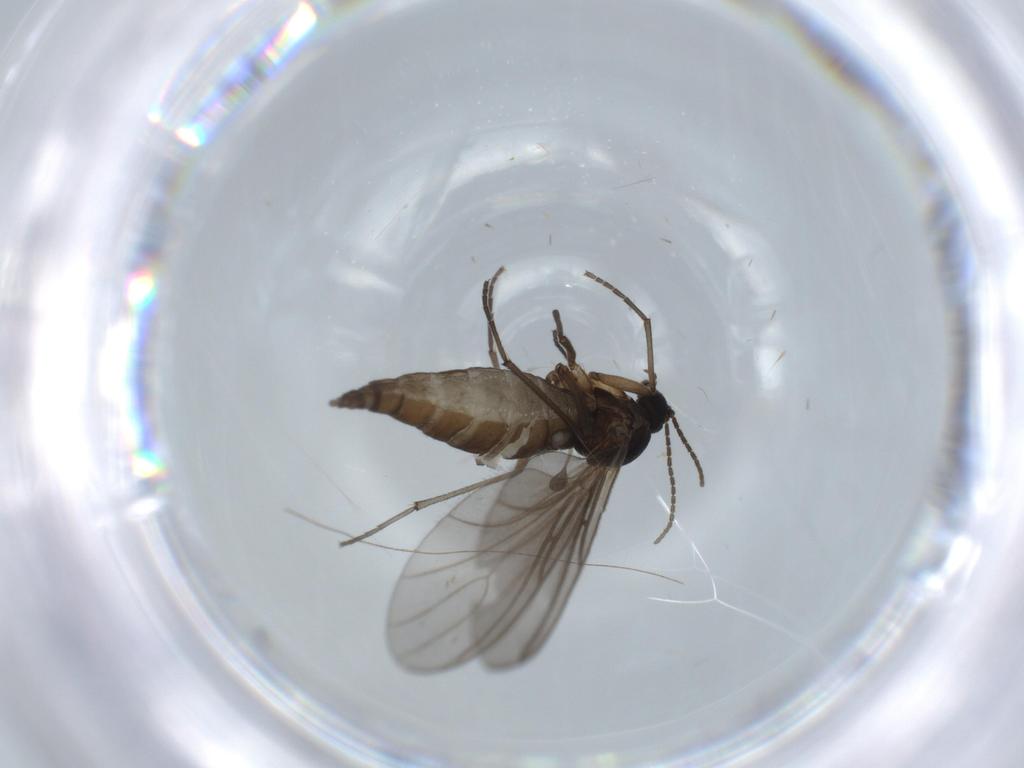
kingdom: Animalia
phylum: Arthropoda
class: Insecta
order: Diptera
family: Sciaridae
